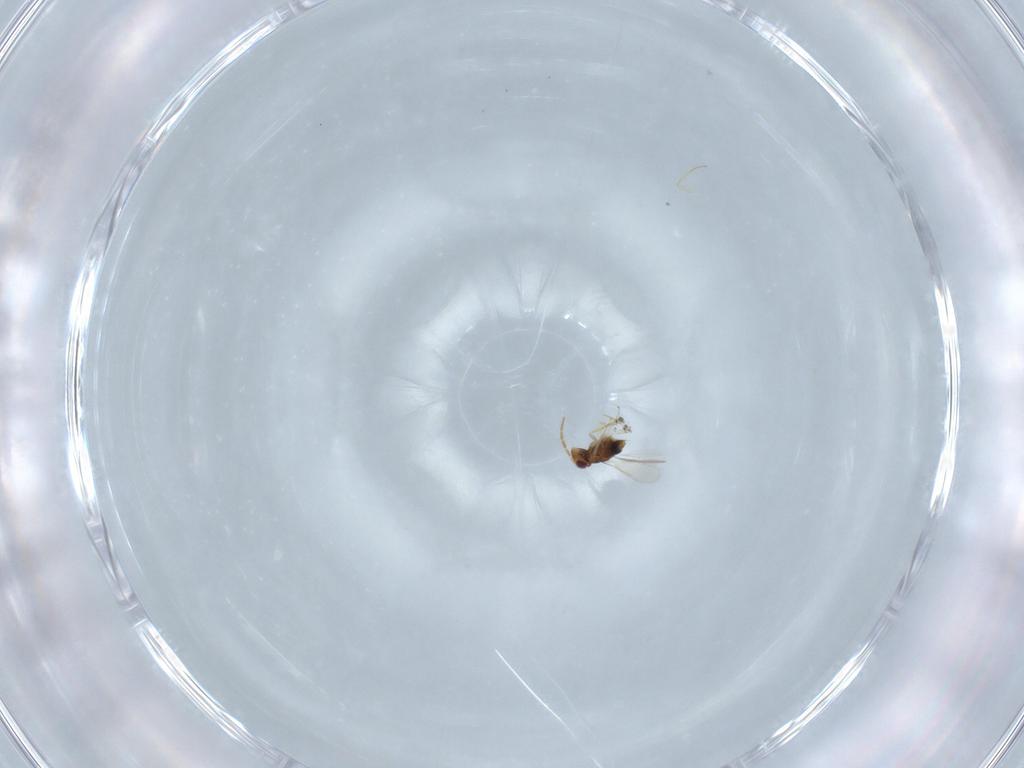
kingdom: Animalia
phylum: Arthropoda
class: Insecta
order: Hymenoptera
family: Aphelinidae
